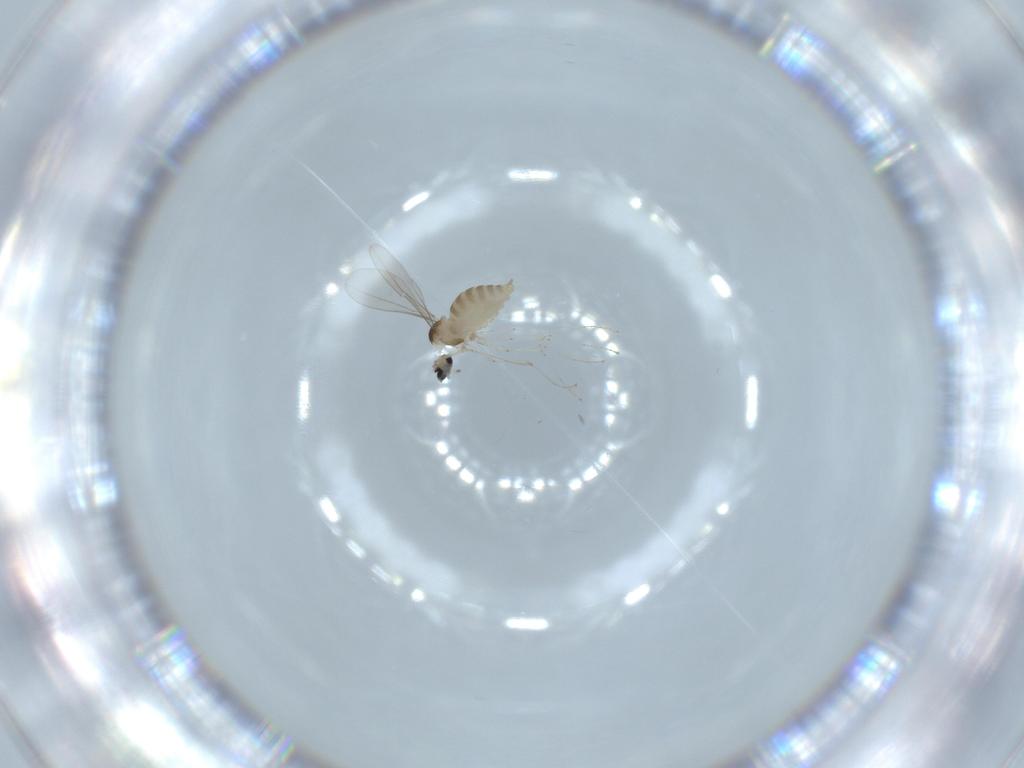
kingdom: Animalia
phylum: Arthropoda
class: Insecta
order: Diptera
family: Cecidomyiidae
